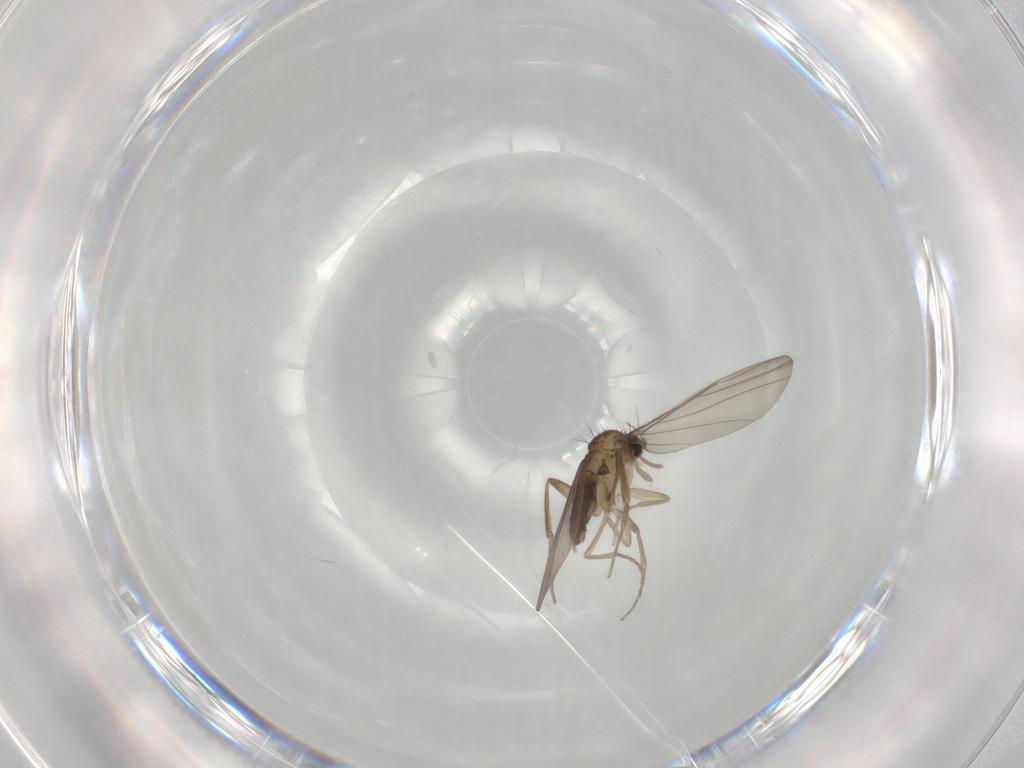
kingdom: Animalia
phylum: Arthropoda
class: Insecta
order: Diptera
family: Phoridae
